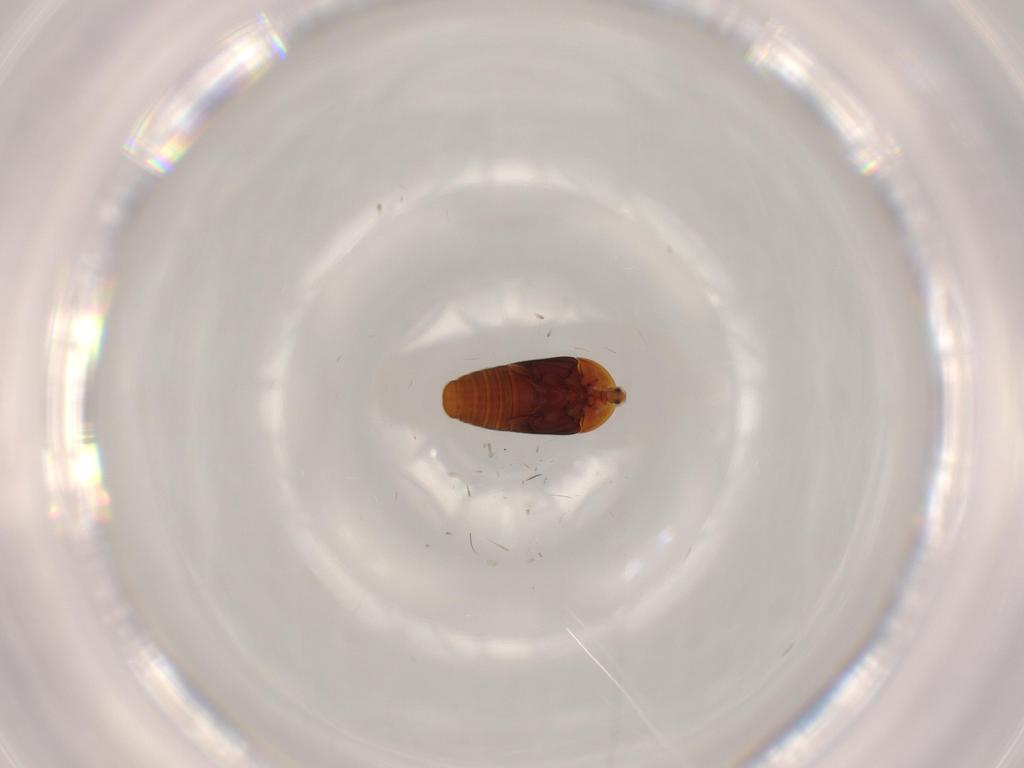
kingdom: Animalia
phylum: Arthropoda
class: Insecta
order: Coleoptera
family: Corylophidae
